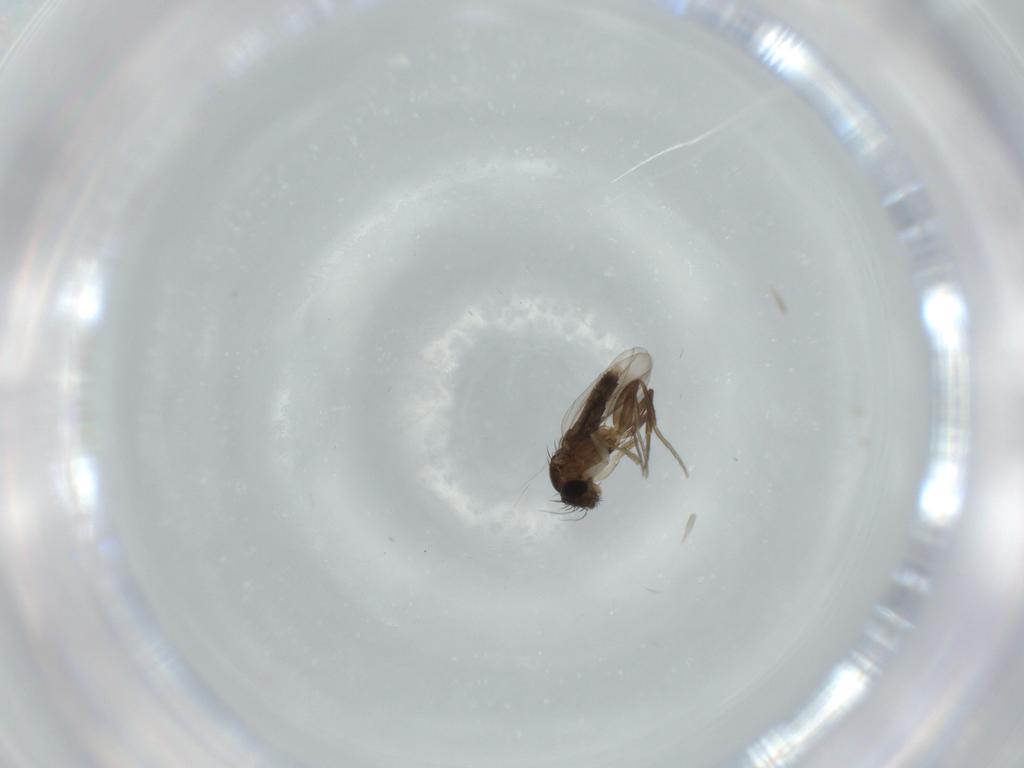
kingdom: Animalia
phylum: Arthropoda
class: Insecta
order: Diptera
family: Phoridae
